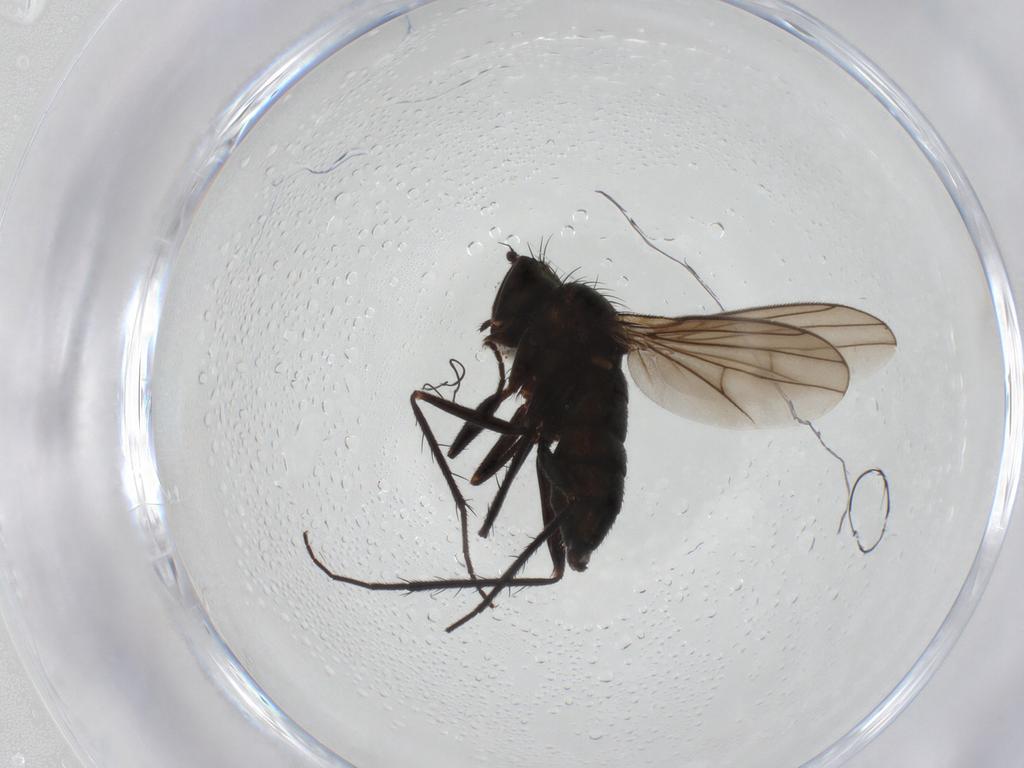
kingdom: Animalia
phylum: Arthropoda
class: Insecta
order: Diptera
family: Dolichopodidae
